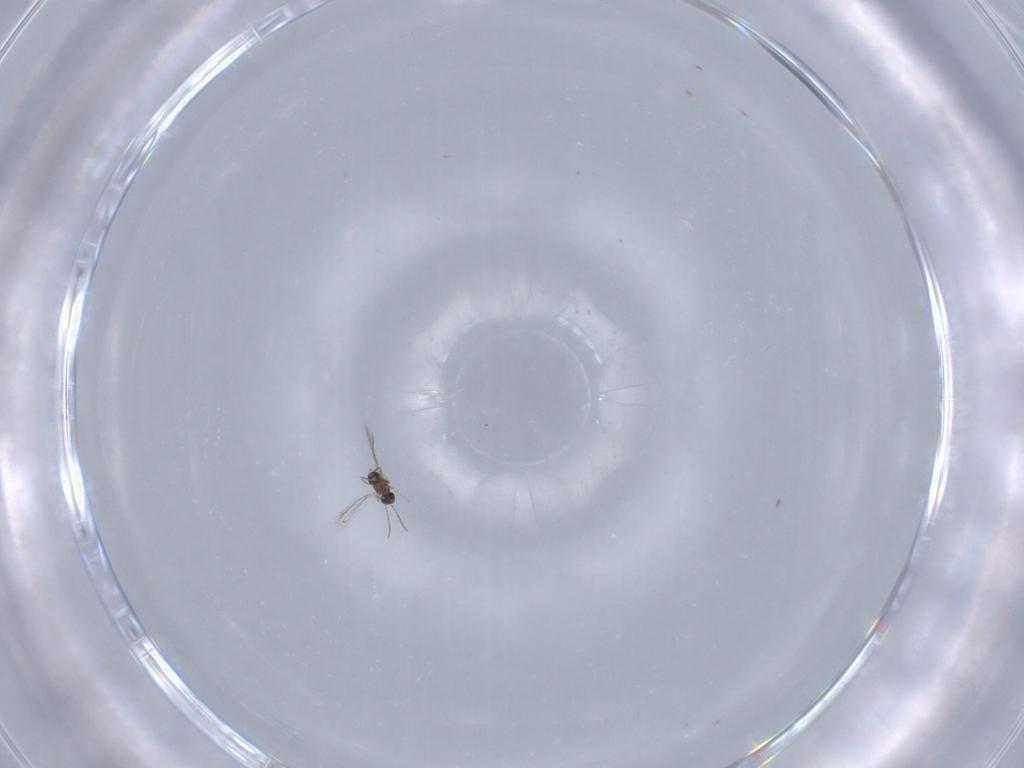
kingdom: Animalia
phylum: Arthropoda
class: Insecta
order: Hymenoptera
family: Mymaridae
